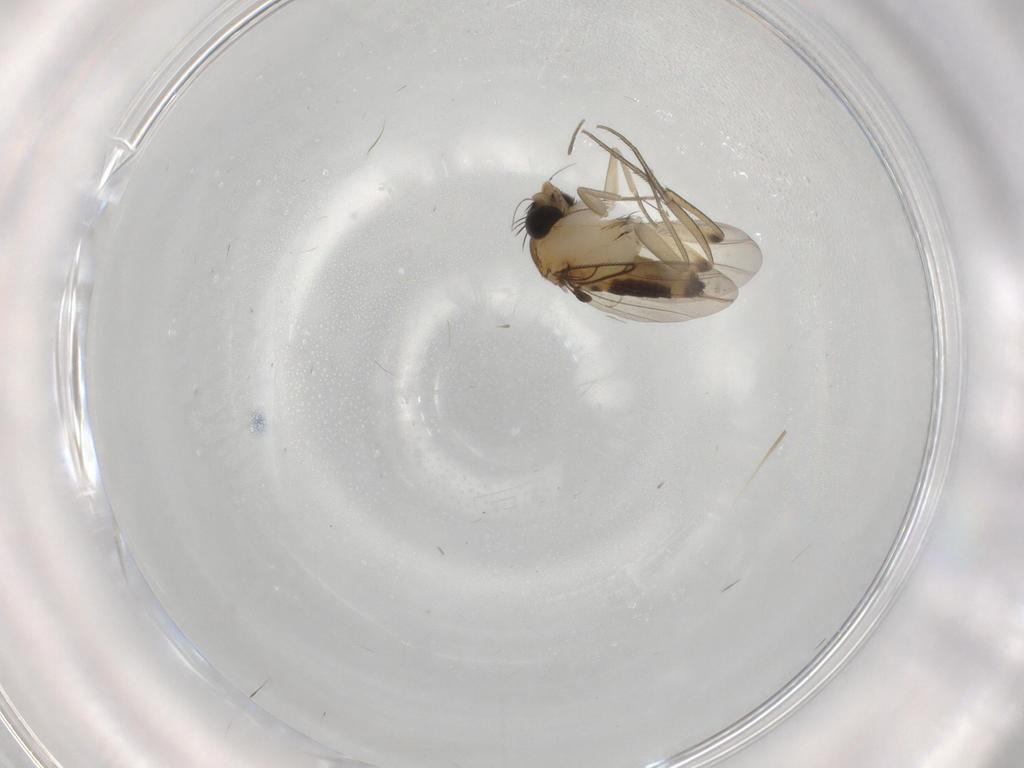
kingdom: Animalia
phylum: Arthropoda
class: Insecta
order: Diptera
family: Phoridae
